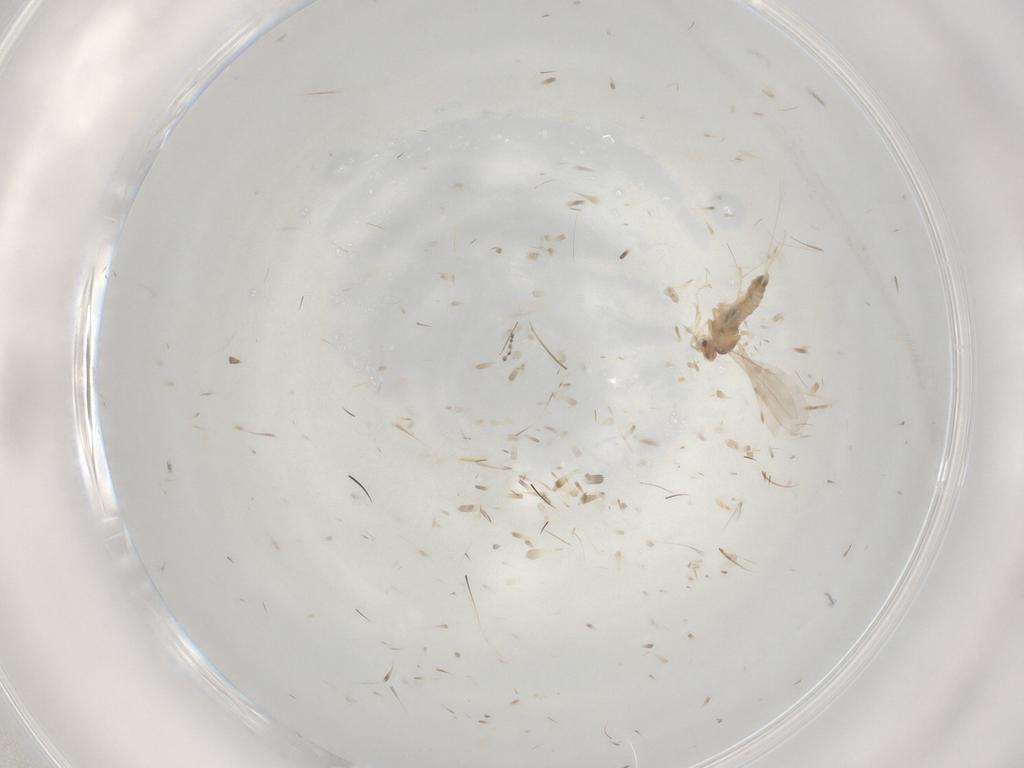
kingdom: Animalia
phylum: Arthropoda
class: Insecta
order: Diptera
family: Cecidomyiidae
